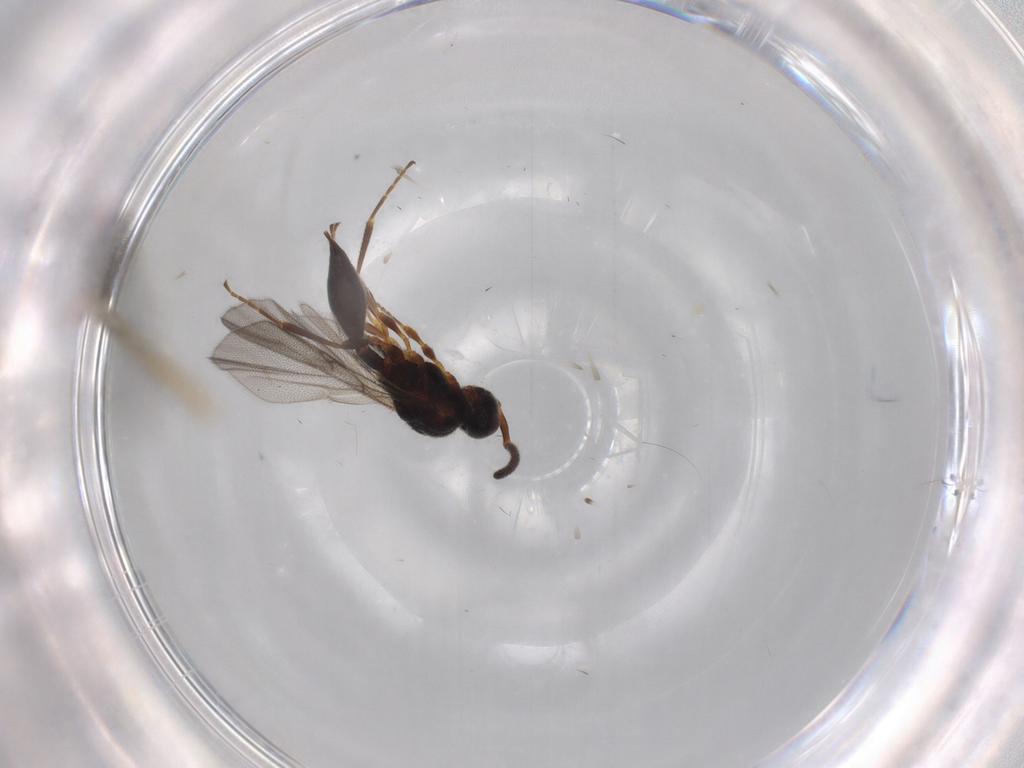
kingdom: Animalia
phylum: Arthropoda
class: Insecta
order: Hymenoptera
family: Diapriidae
